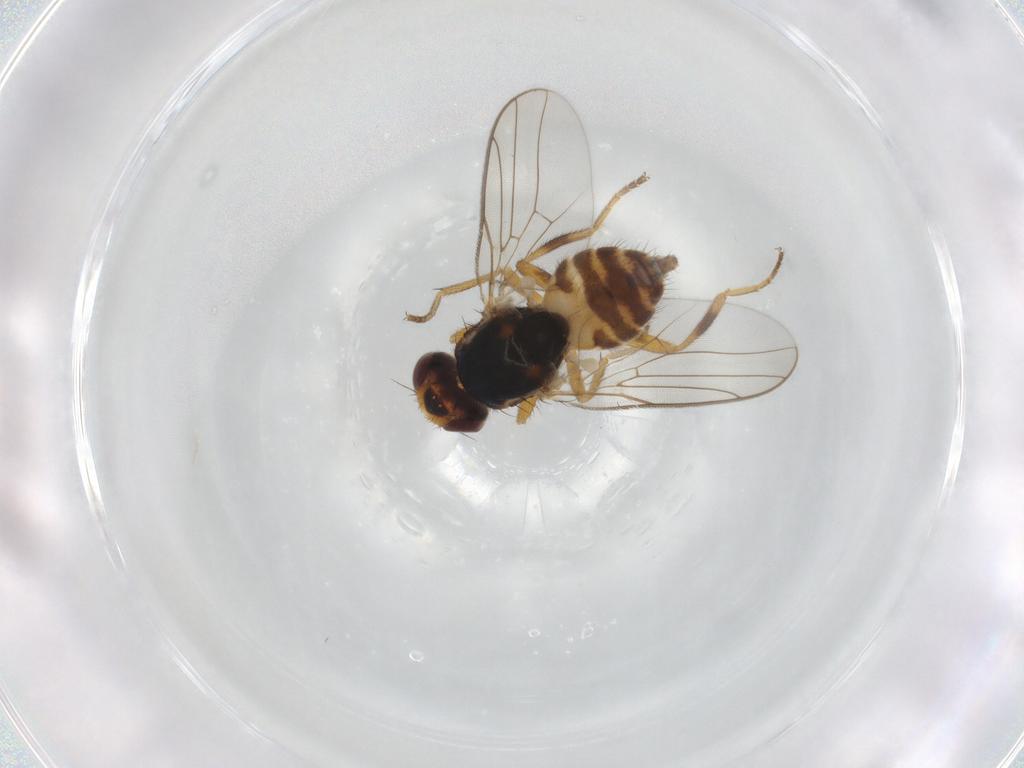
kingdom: Animalia
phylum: Arthropoda
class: Insecta
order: Diptera
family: Chloropidae
